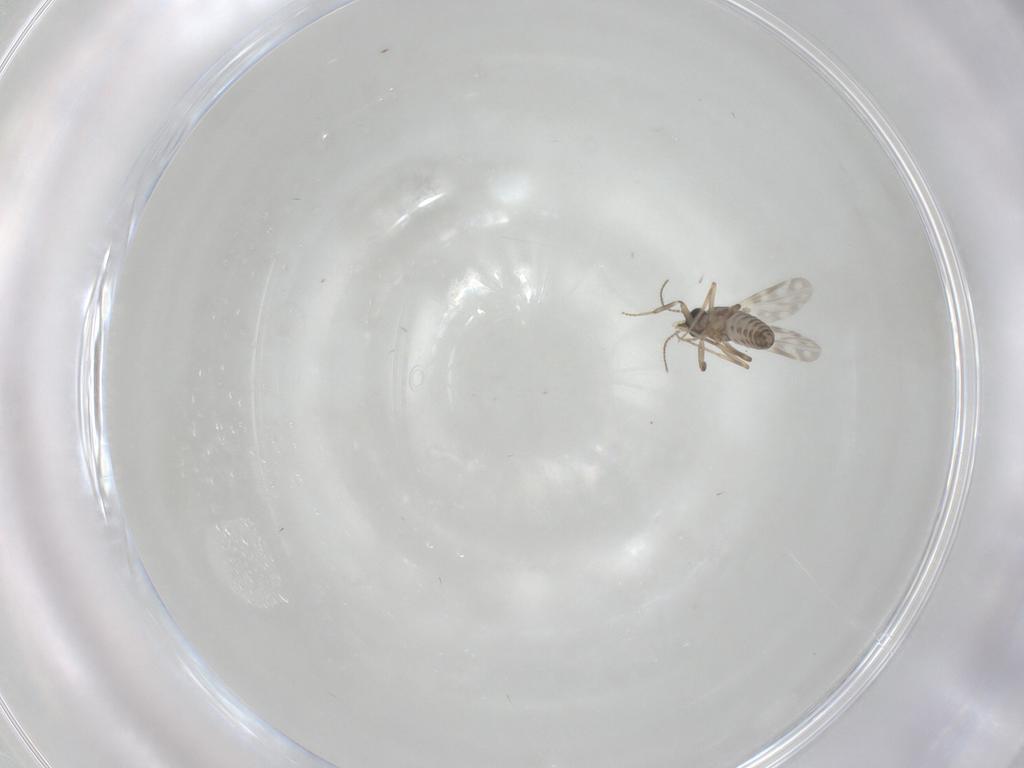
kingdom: Animalia
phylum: Arthropoda
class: Insecta
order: Diptera
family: Ceratopogonidae
